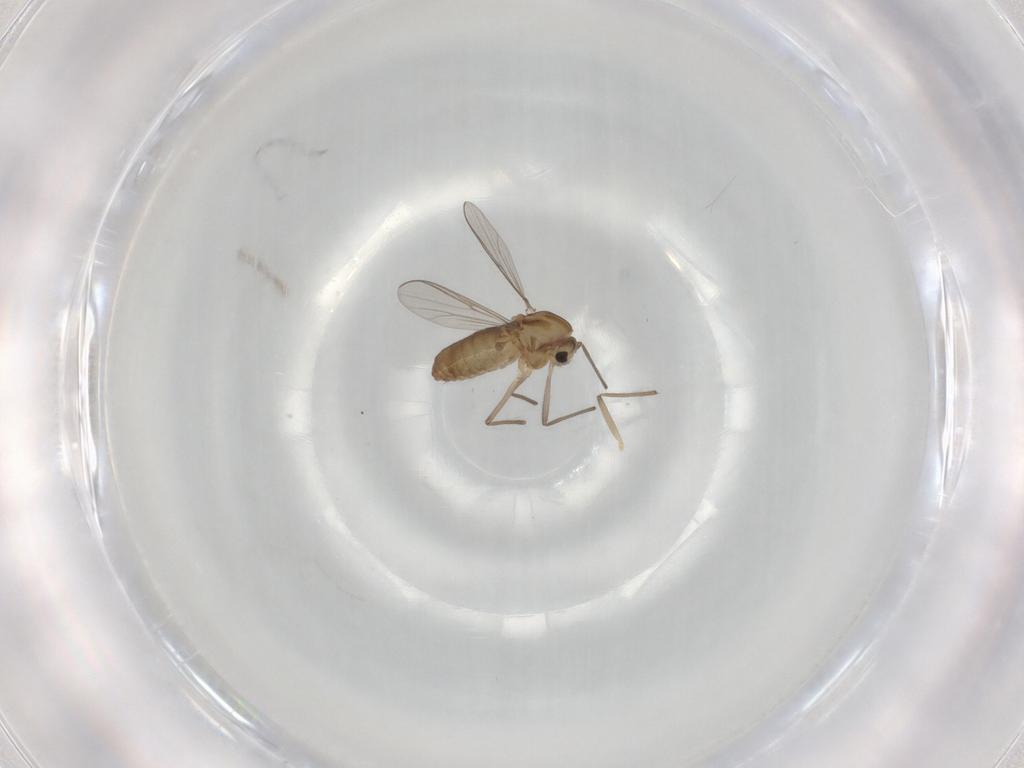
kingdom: Animalia
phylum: Arthropoda
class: Insecta
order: Diptera
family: Chironomidae
